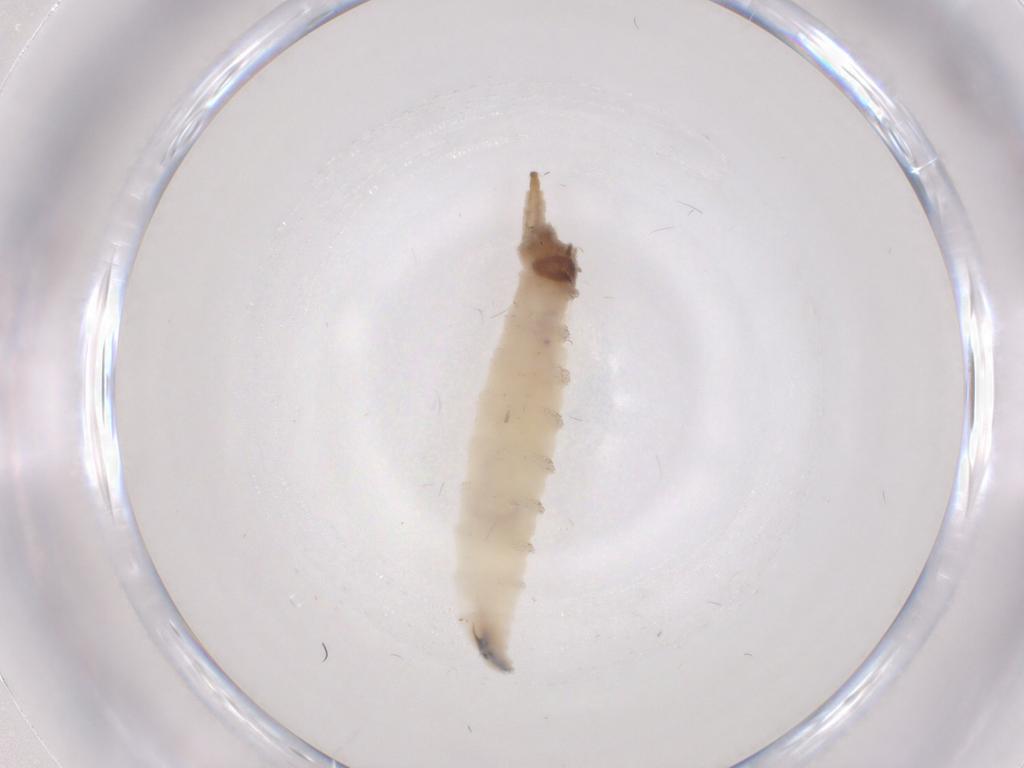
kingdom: Animalia
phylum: Arthropoda
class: Insecta
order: Diptera
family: Drosophilidae
